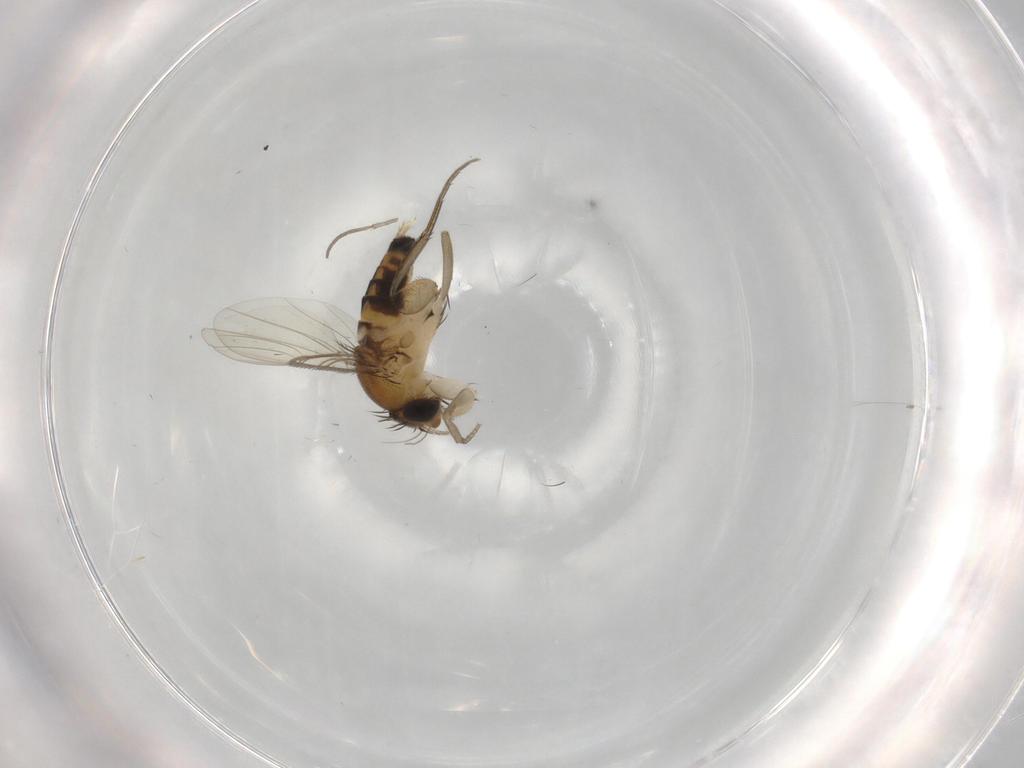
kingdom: Animalia
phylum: Arthropoda
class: Insecta
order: Diptera
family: Phoridae
